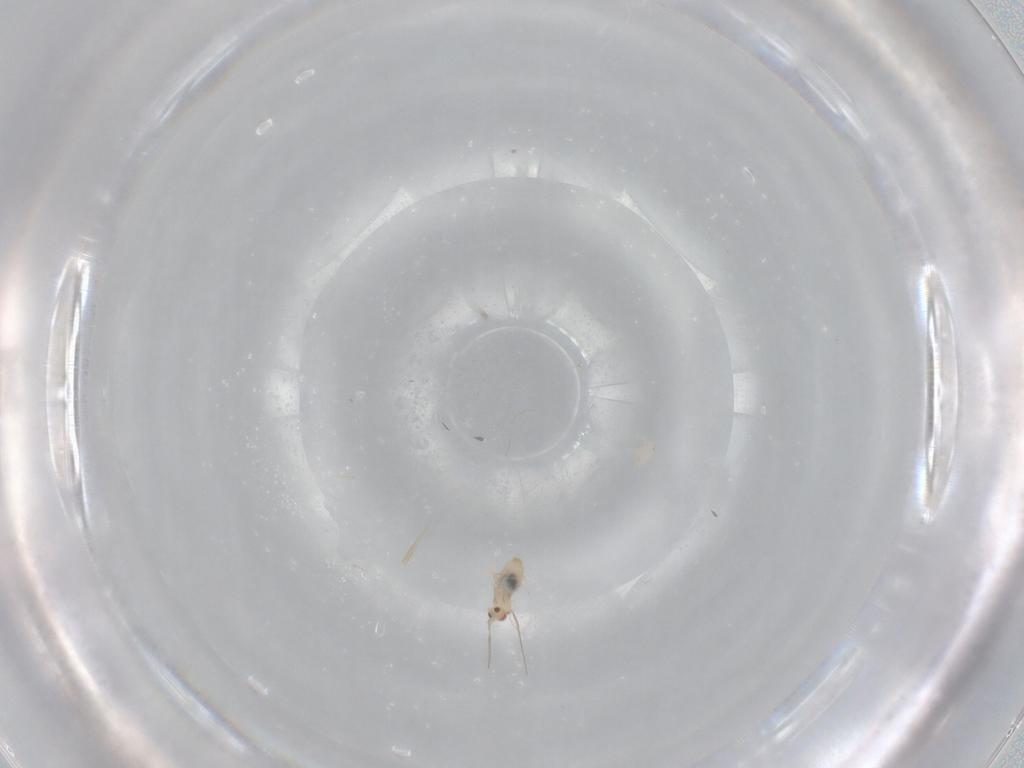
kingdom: Animalia
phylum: Arthropoda
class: Insecta
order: Diptera
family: Cecidomyiidae
